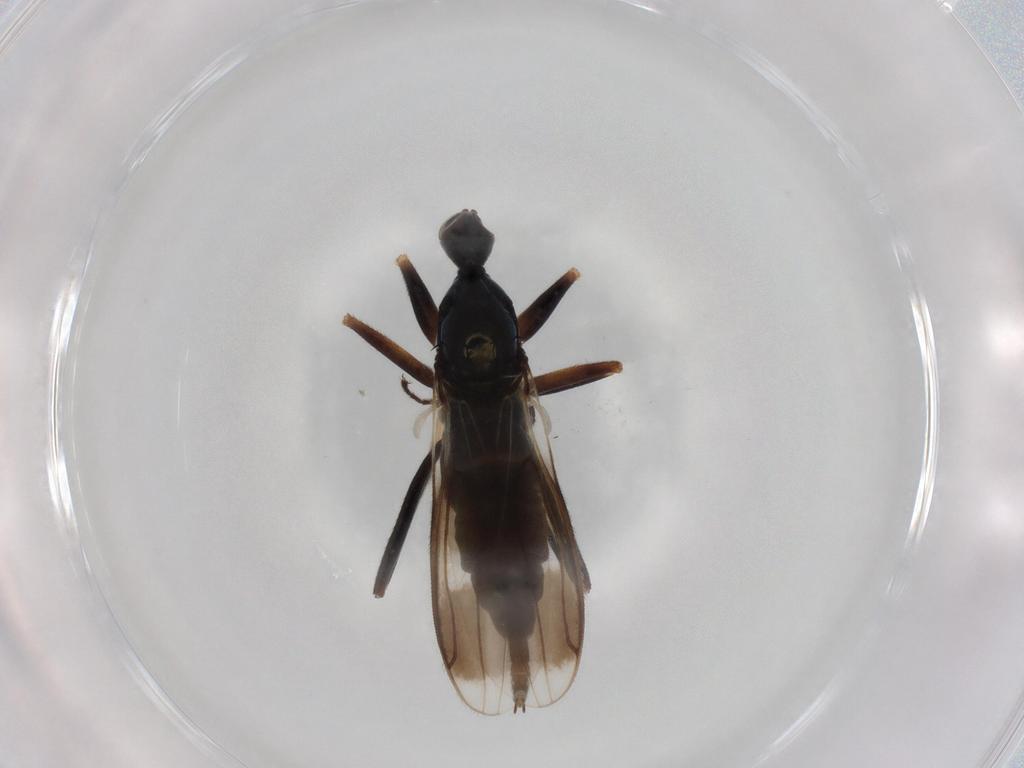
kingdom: Animalia
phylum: Arthropoda
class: Insecta
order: Diptera
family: Hybotidae
